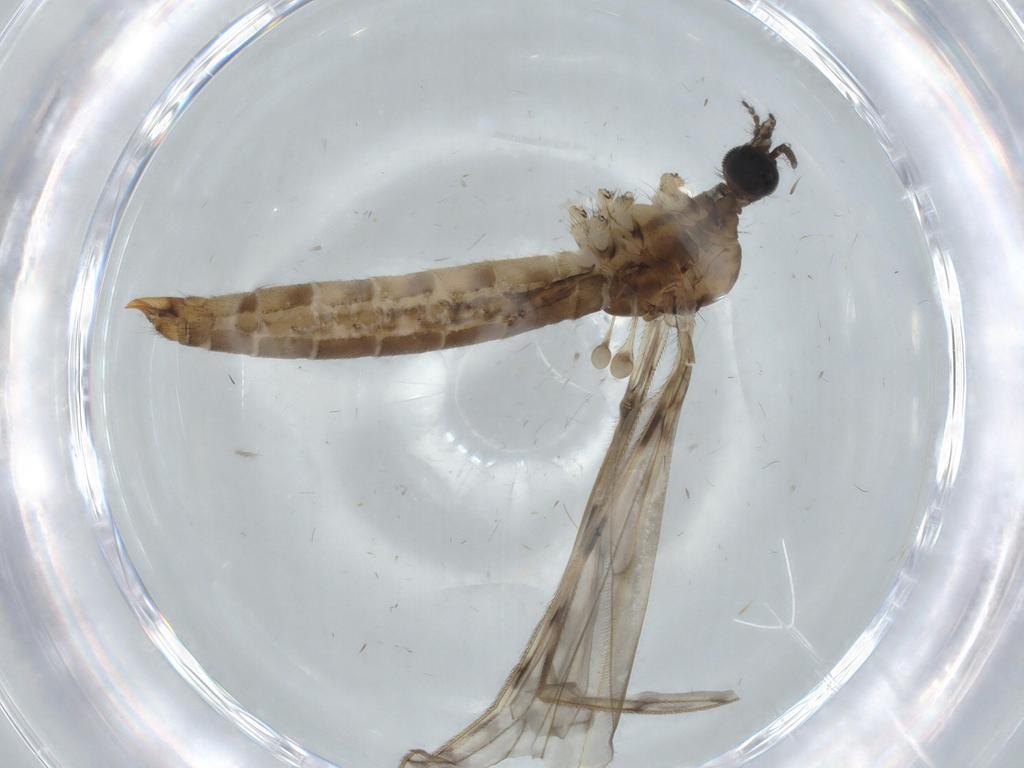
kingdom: Animalia
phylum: Arthropoda
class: Insecta
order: Diptera
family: Limoniidae
